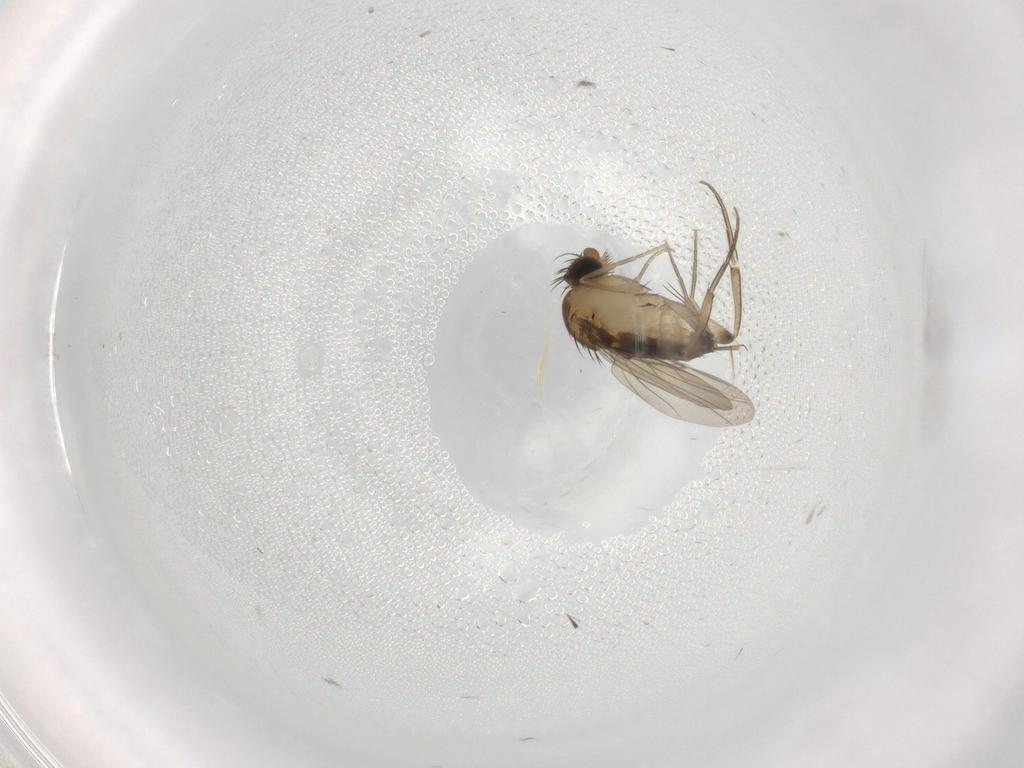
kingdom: Animalia
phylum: Arthropoda
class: Insecta
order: Diptera
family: Phoridae
